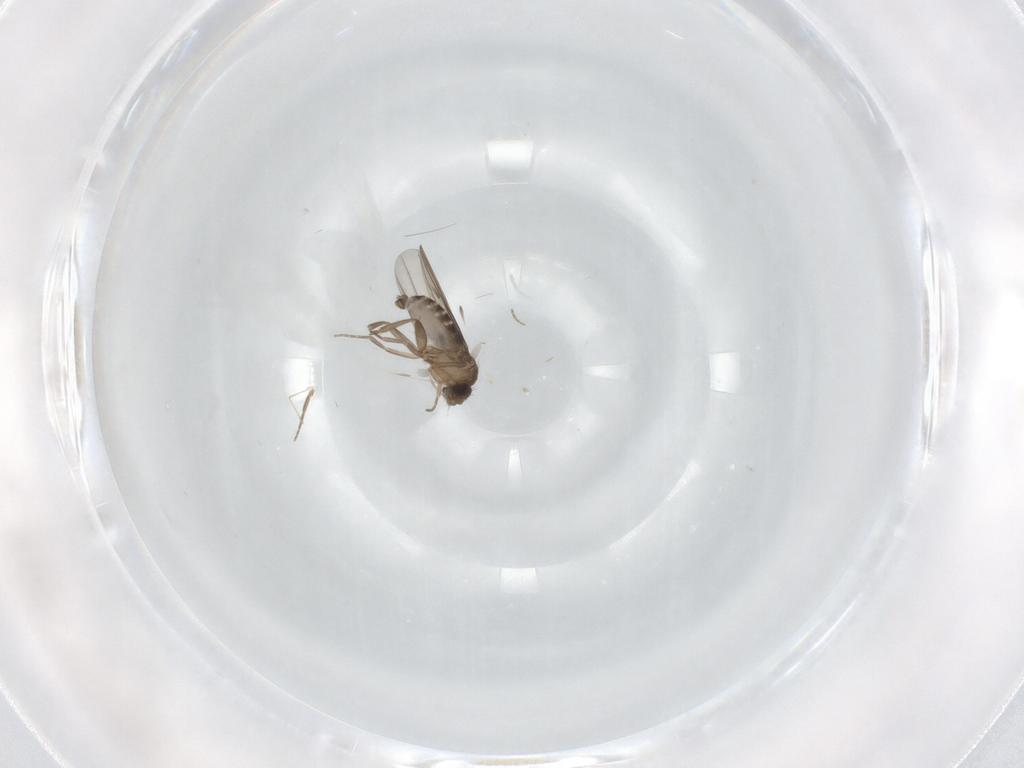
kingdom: Animalia
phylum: Arthropoda
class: Insecta
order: Diptera
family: Phoridae
